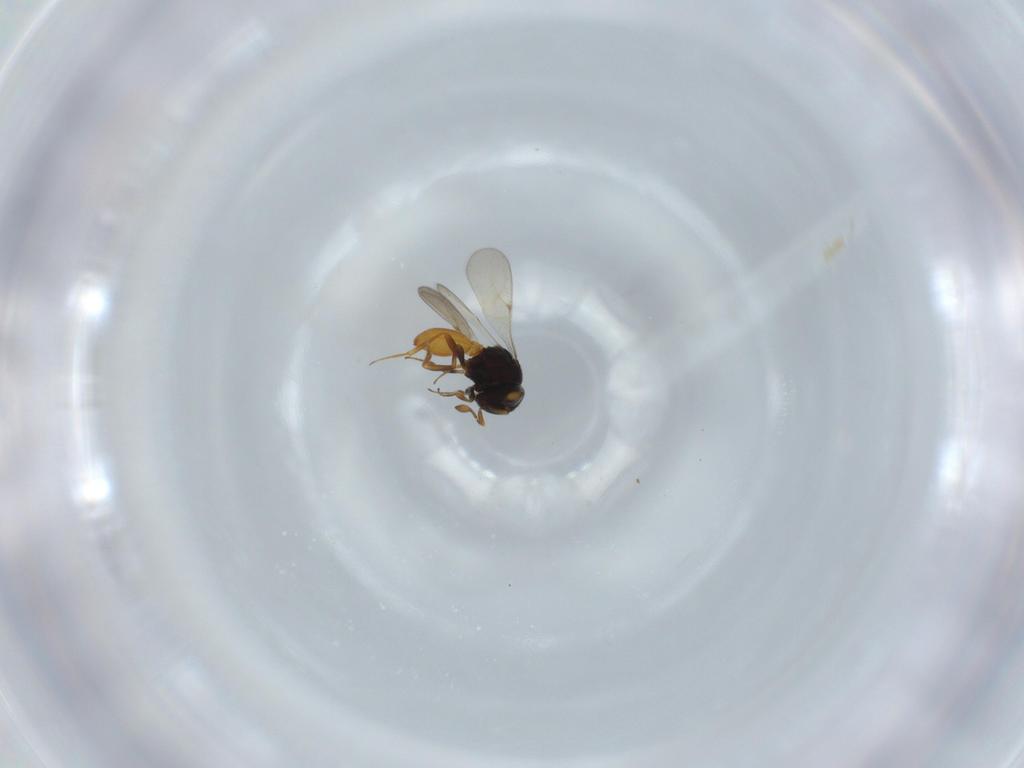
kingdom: Animalia
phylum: Arthropoda
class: Insecta
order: Hymenoptera
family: Scelionidae
